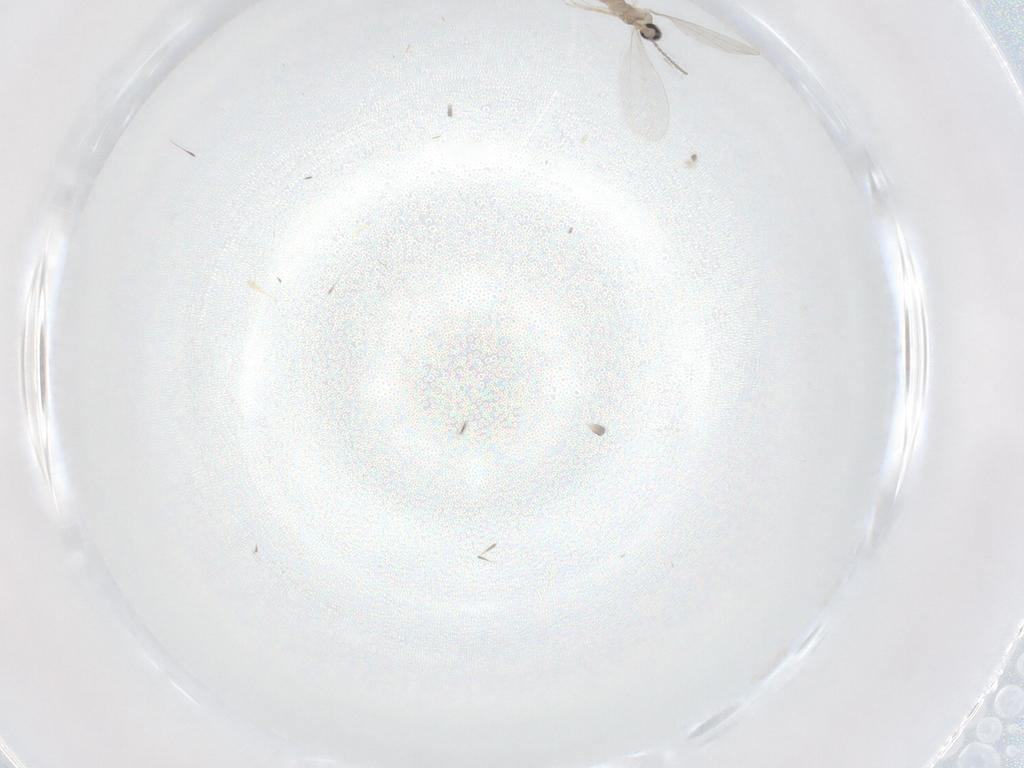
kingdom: Animalia
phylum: Arthropoda
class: Insecta
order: Diptera
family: Cecidomyiidae
